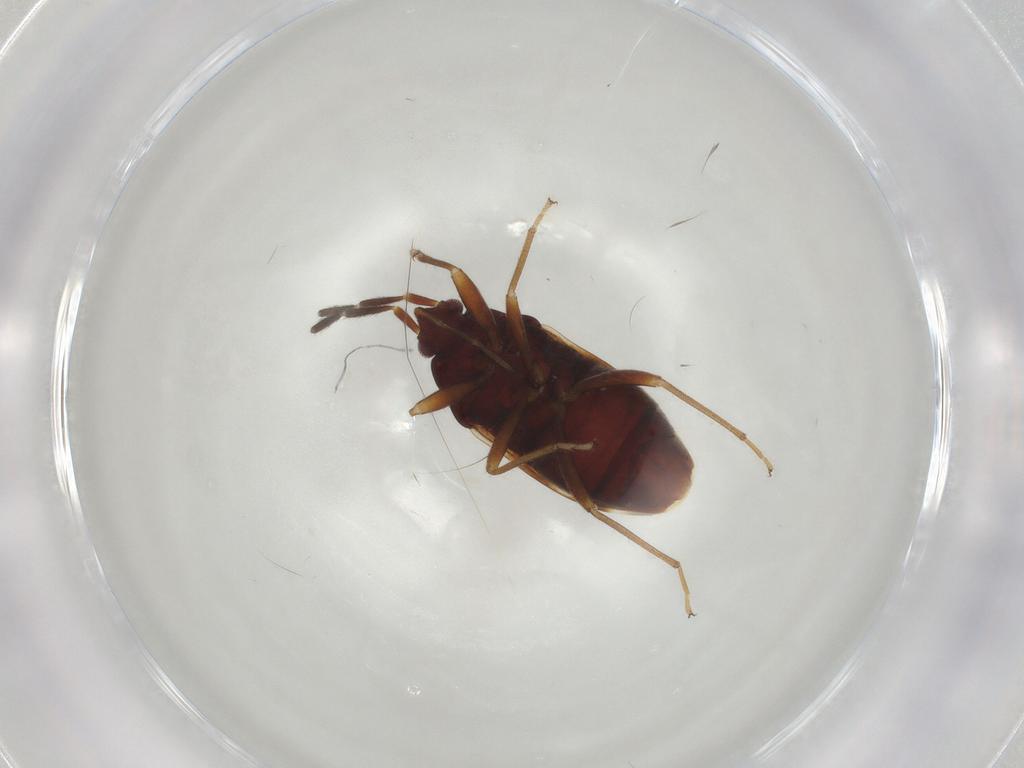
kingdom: Animalia
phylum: Arthropoda
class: Insecta
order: Hemiptera
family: Rhyparochromidae
